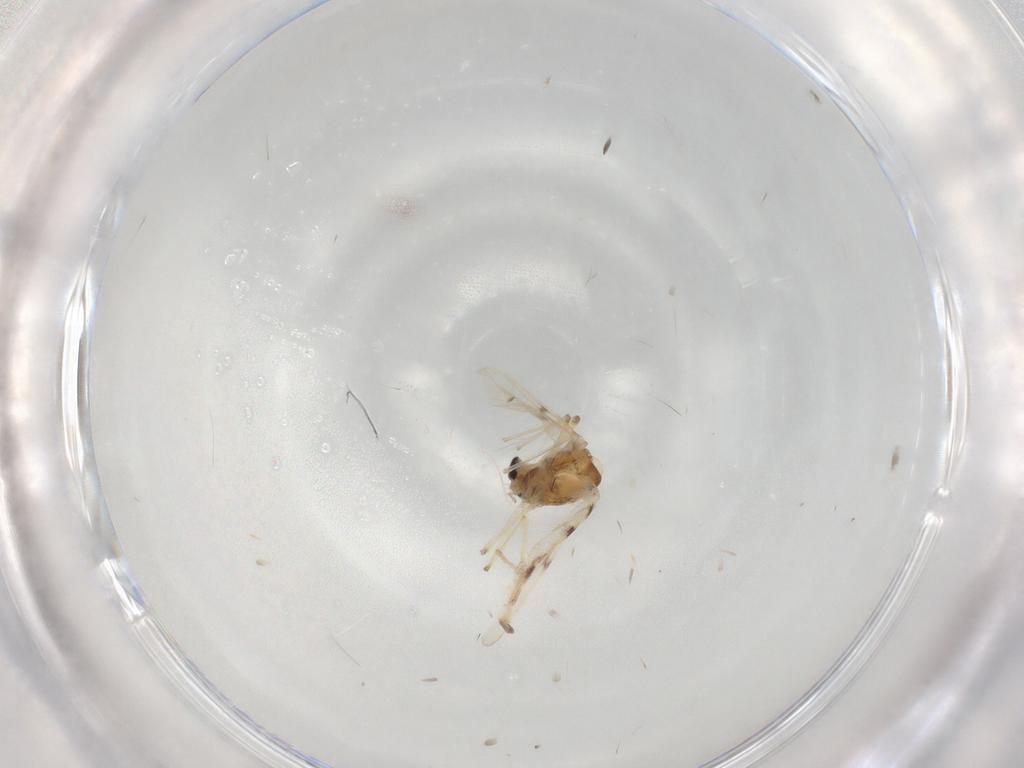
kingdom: Animalia
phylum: Arthropoda
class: Insecta
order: Diptera
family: Chironomidae
